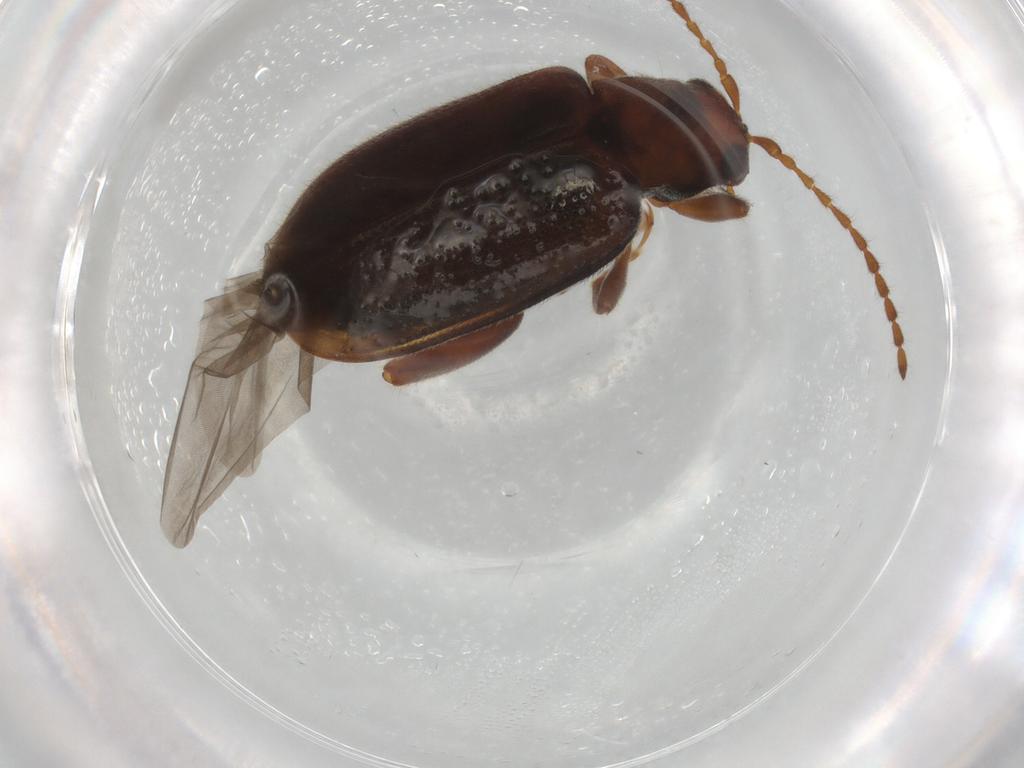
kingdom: Animalia
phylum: Arthropoda
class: Insecta
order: Coleoptera
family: Chrysomelidae
